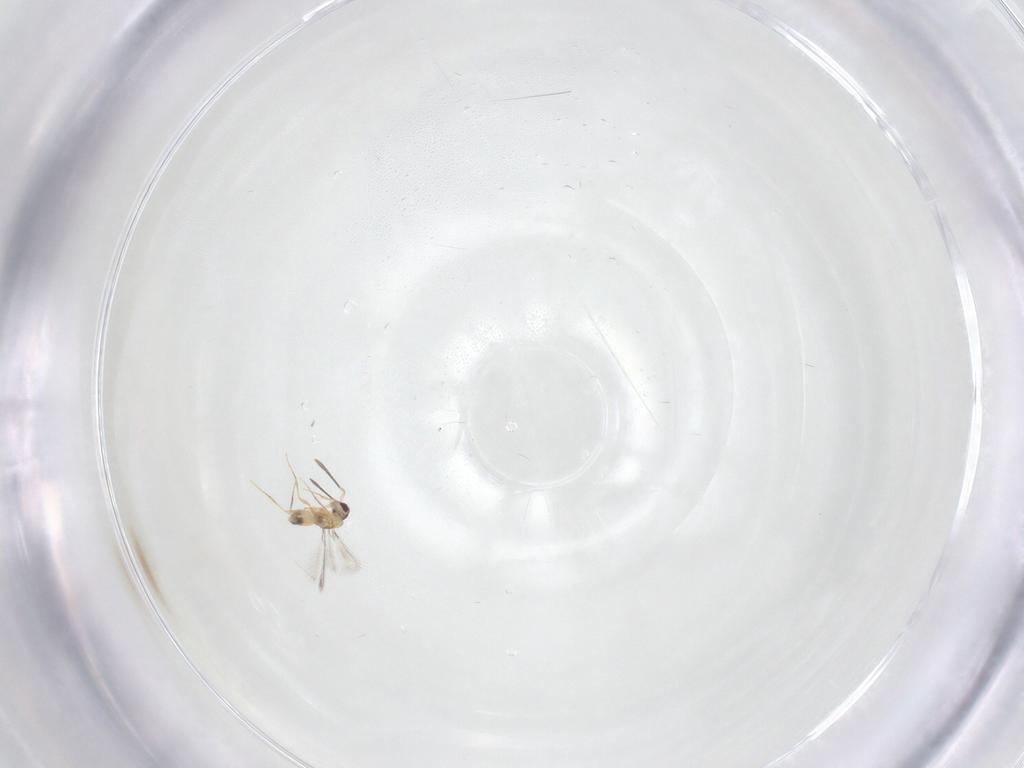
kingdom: Animalia
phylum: Arthropoda
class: Insecta
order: Hymenoptera
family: Mymaridae
